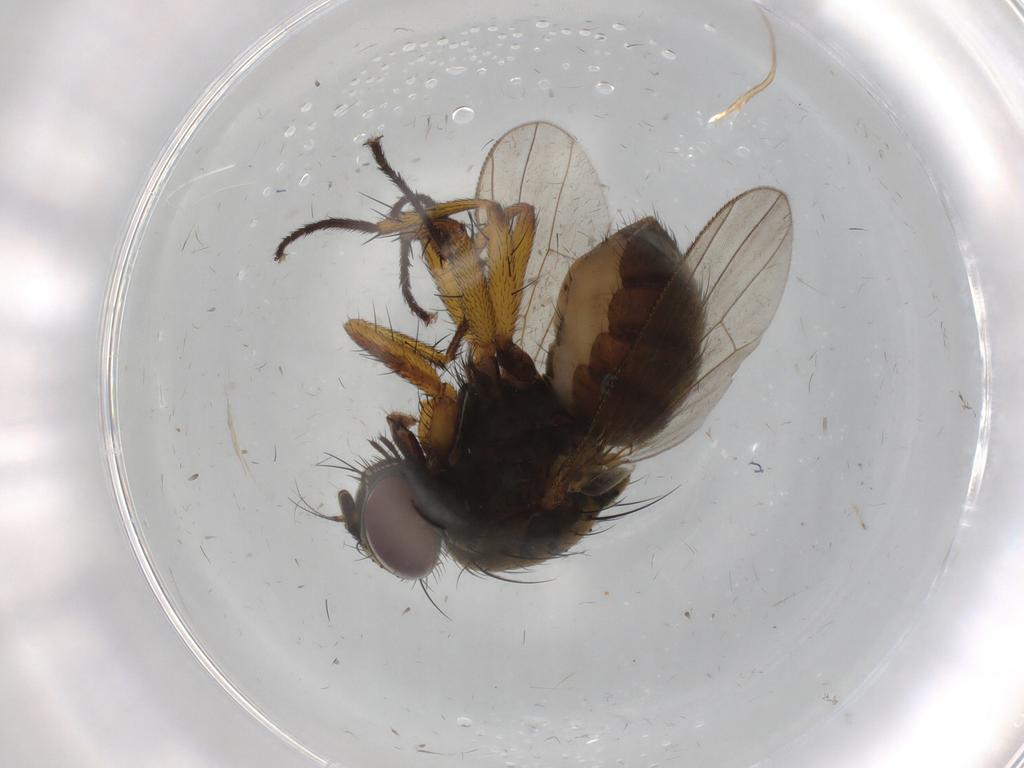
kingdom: Animalia
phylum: Arthropoda
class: Insecta
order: Diptera
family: Muscidae
